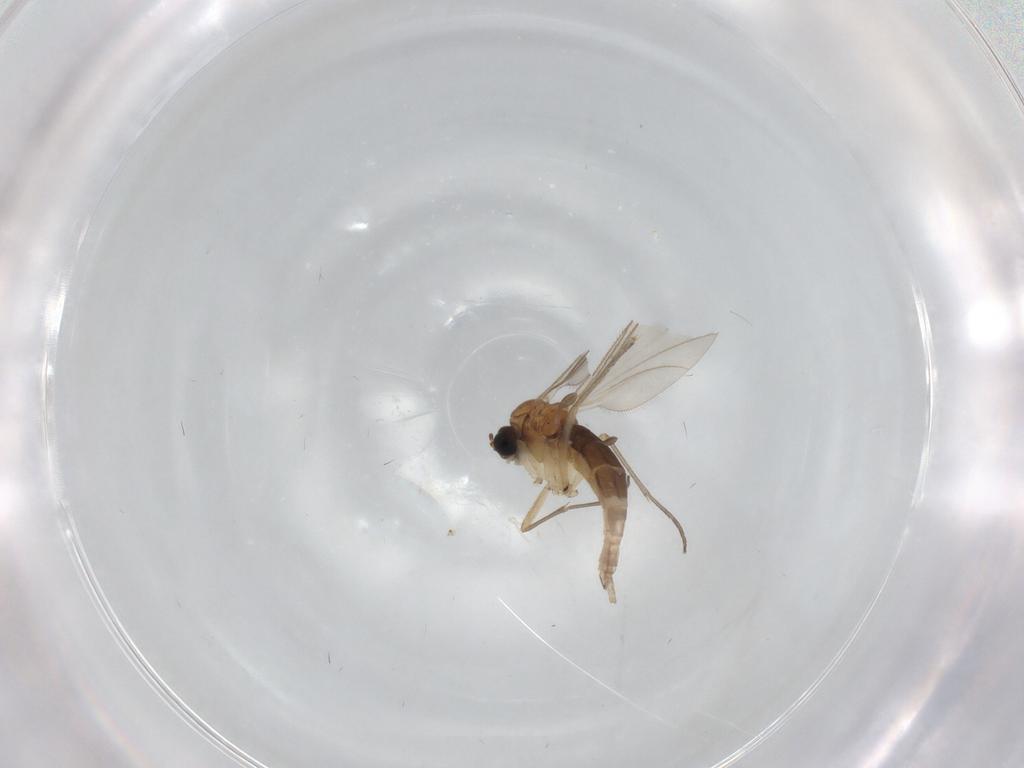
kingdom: Animalia
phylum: Arthropoda
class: Insecta
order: Diptera
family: Sciaridae
